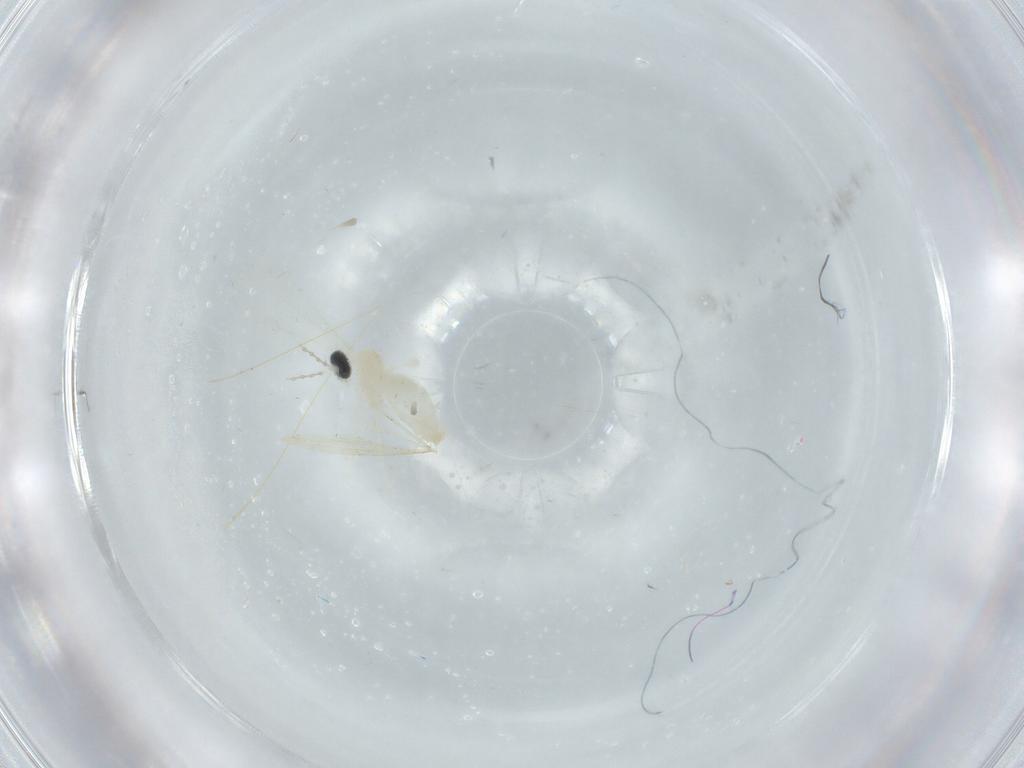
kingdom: Animalia
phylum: Arthropoda
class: Insecta
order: Diptera
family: Cecidomyiidae
